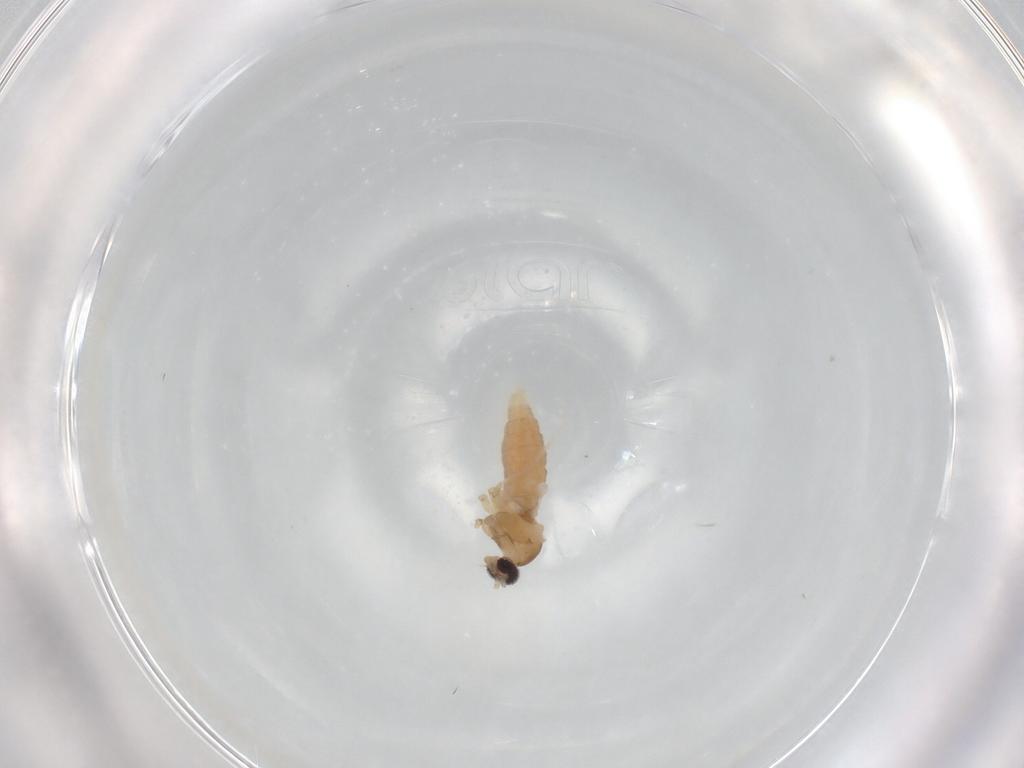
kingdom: Animalia
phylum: Arthropoda
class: Insecta
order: Diptera
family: Cecidomyiidae
